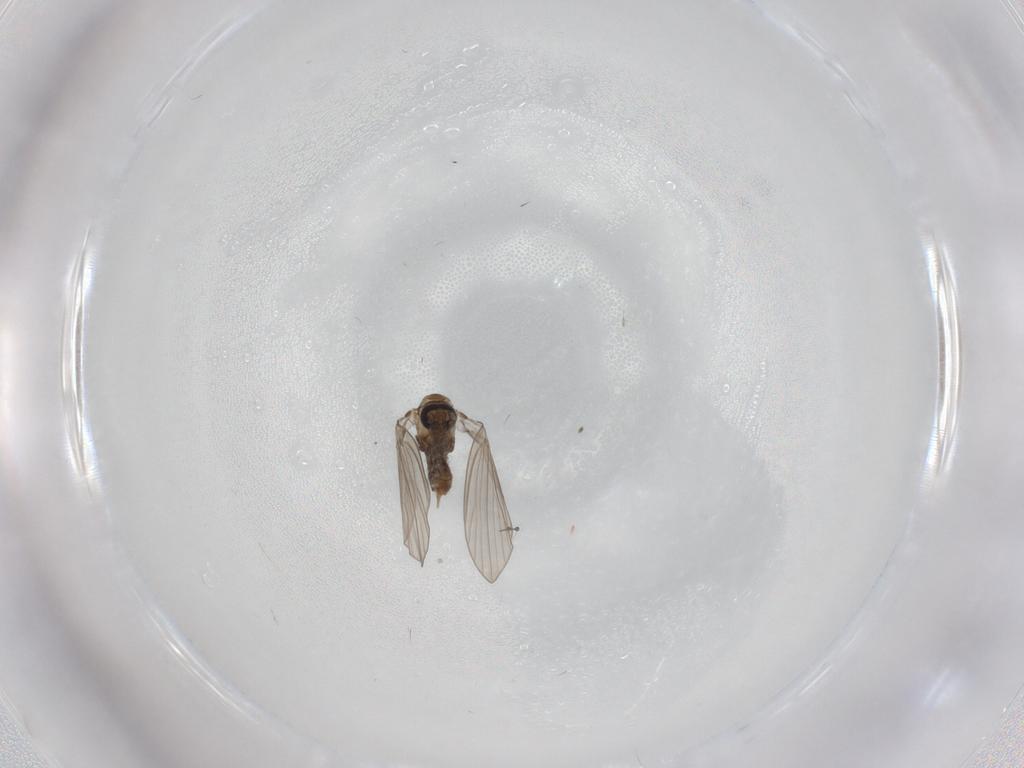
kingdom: Animalia
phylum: Arthropoda
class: Insecta
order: Diptera
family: Psychodidae
